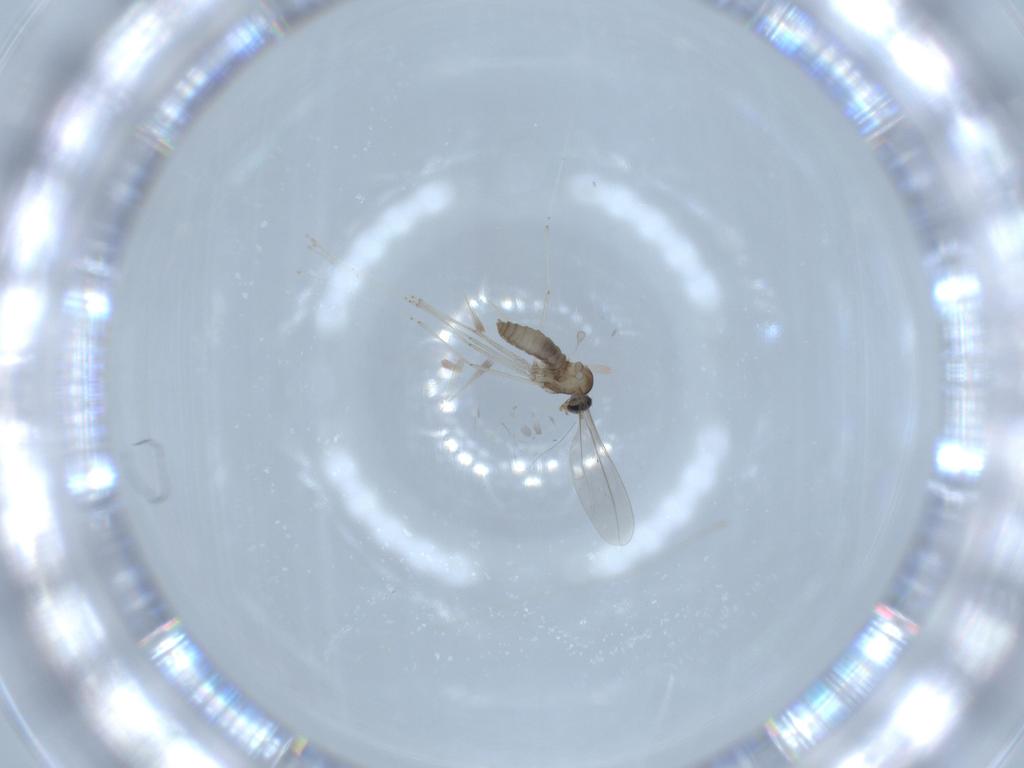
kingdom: Animalia
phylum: Arthropoda
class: Insecta
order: Diptera
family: Cecidomyiidae
